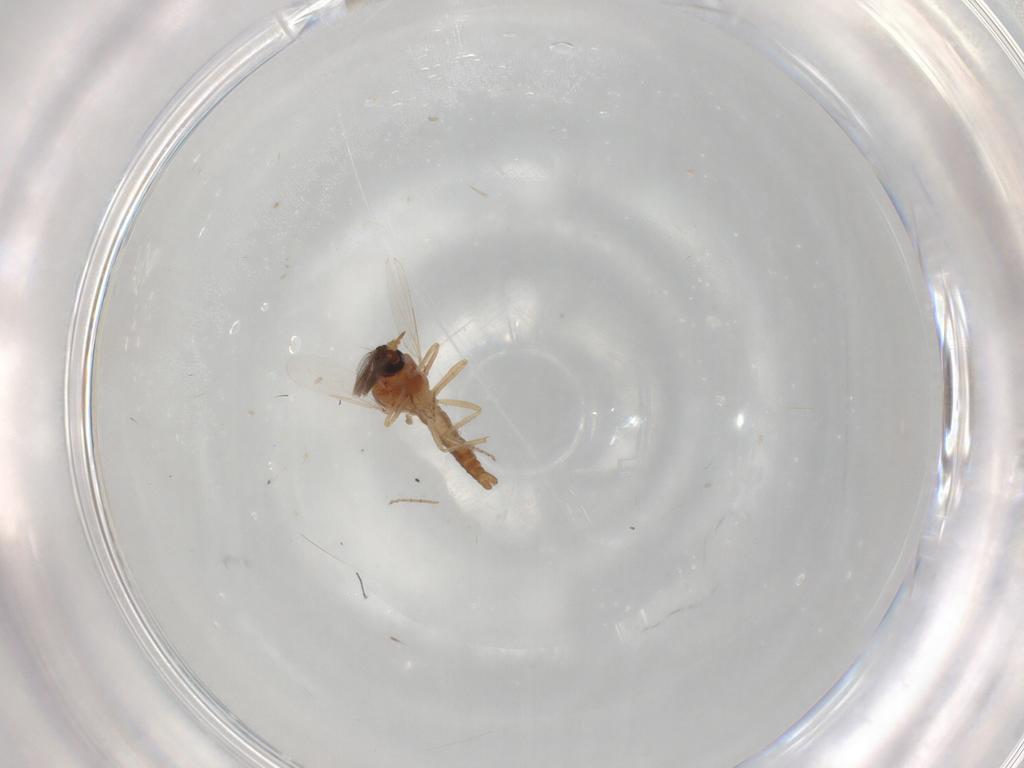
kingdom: Animalia
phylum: Arthropoda
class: Insecta
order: Diptera
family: Ceratopogonidae
